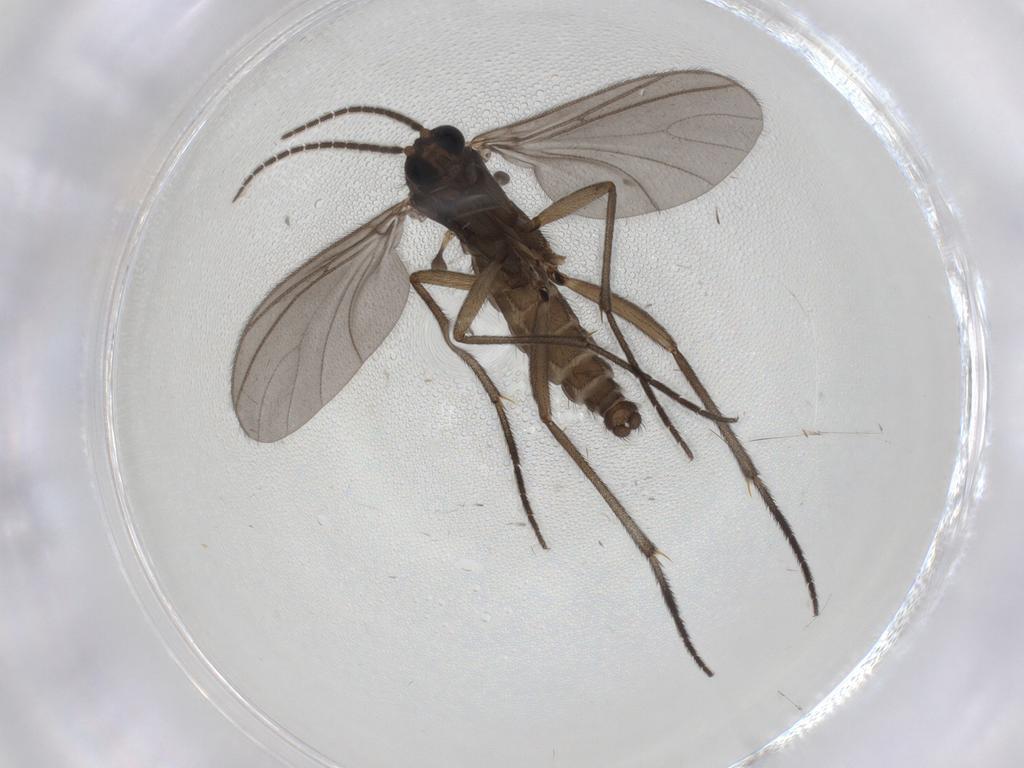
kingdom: Animalia
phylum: Arthropoda
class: Insecta
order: Diptera
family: Sciaridae
